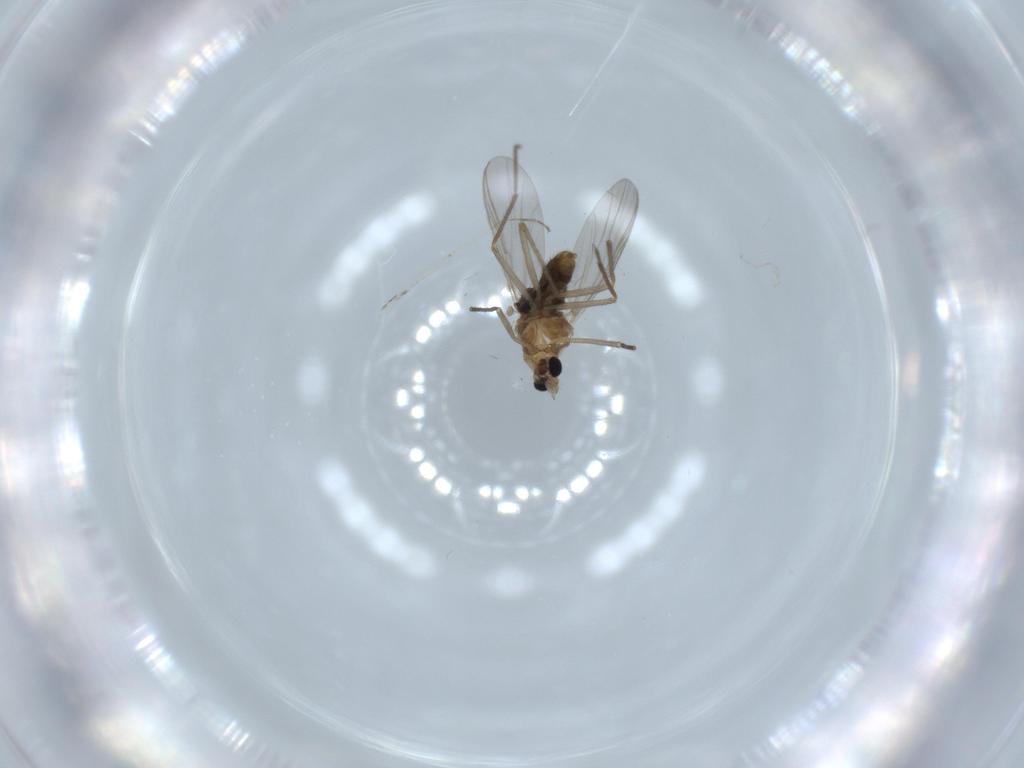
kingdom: Animalia
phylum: Arthropoda
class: Insecta
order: Diptera
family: Chironomidae
